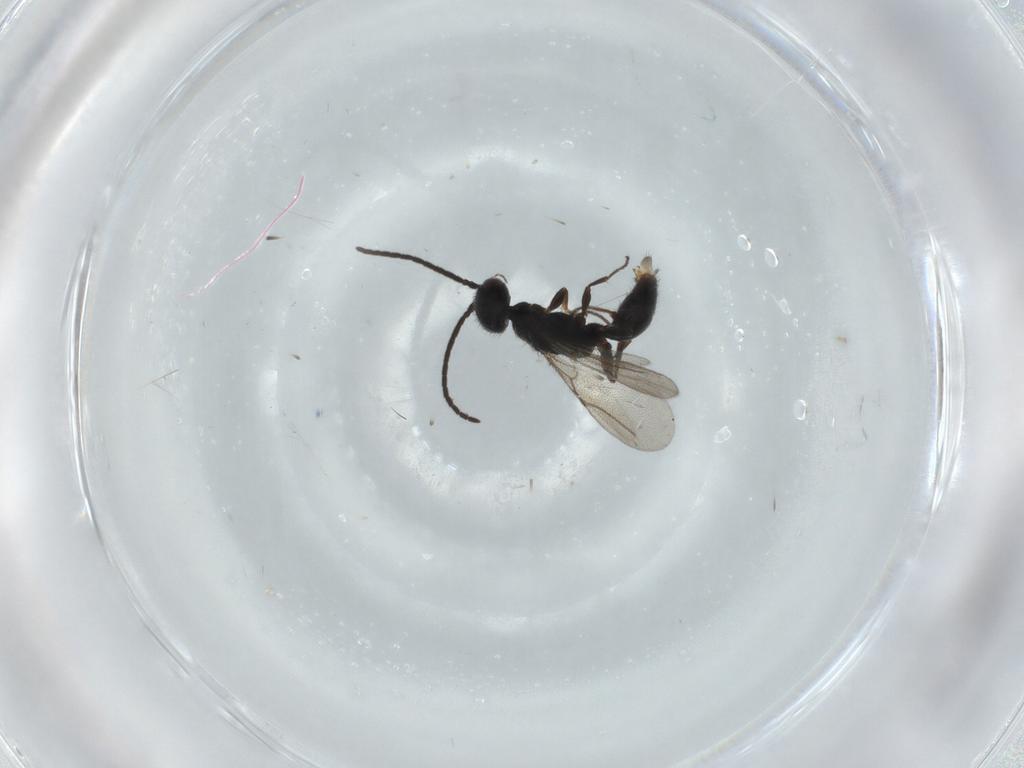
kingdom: Animalia
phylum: Arthropoda
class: Insecta
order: Hymenoptera
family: Bethylidae
